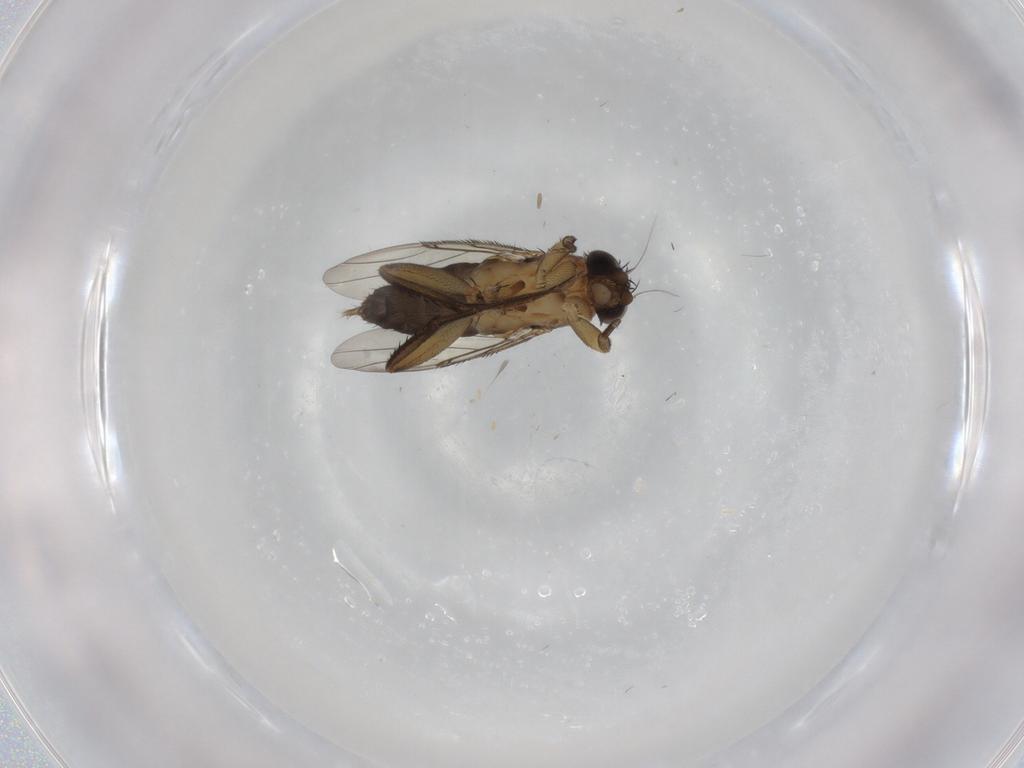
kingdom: Animalia
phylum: Arthropoda
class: Insecta
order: Diptera
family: Phoridae
